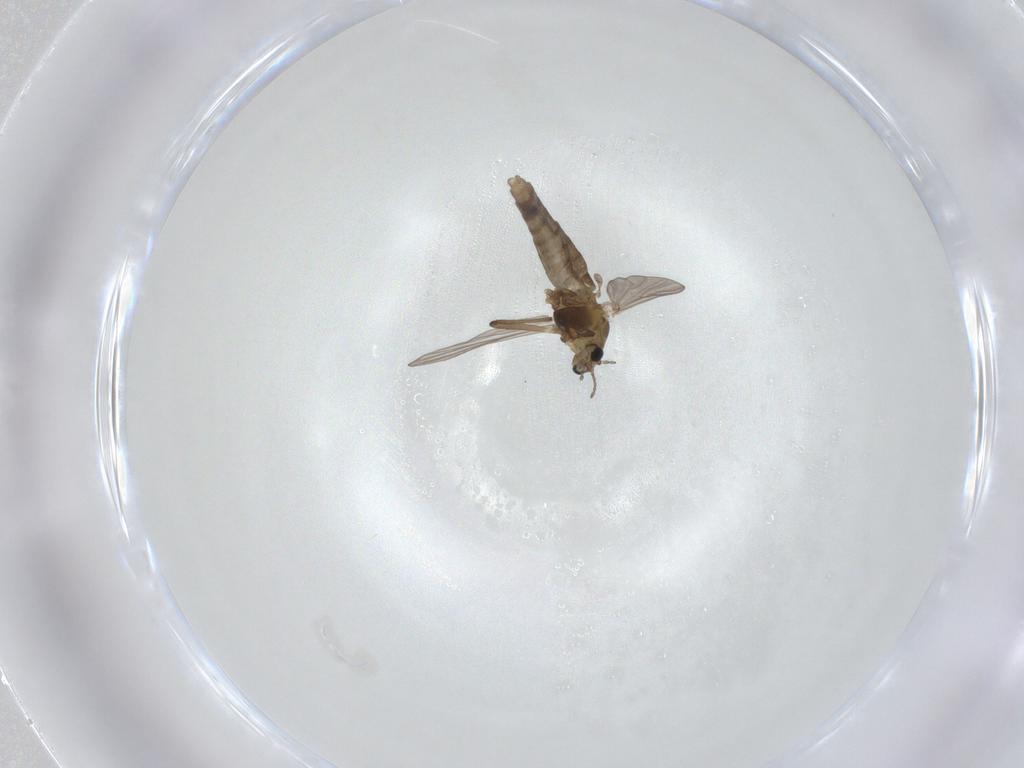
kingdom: Animalia
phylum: Arthropoda
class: Insecta
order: Diptera
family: Chironomidae
